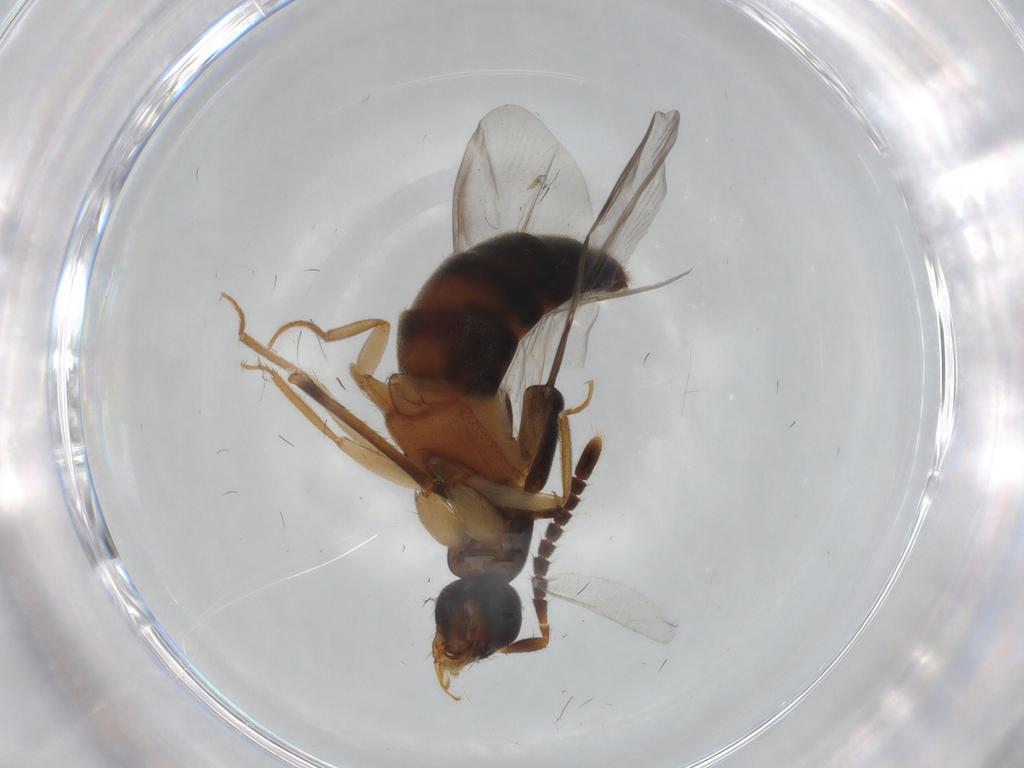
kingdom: Animalia
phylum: Arthropoda
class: Insecta
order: Coleoptera
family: Staphylinidae
